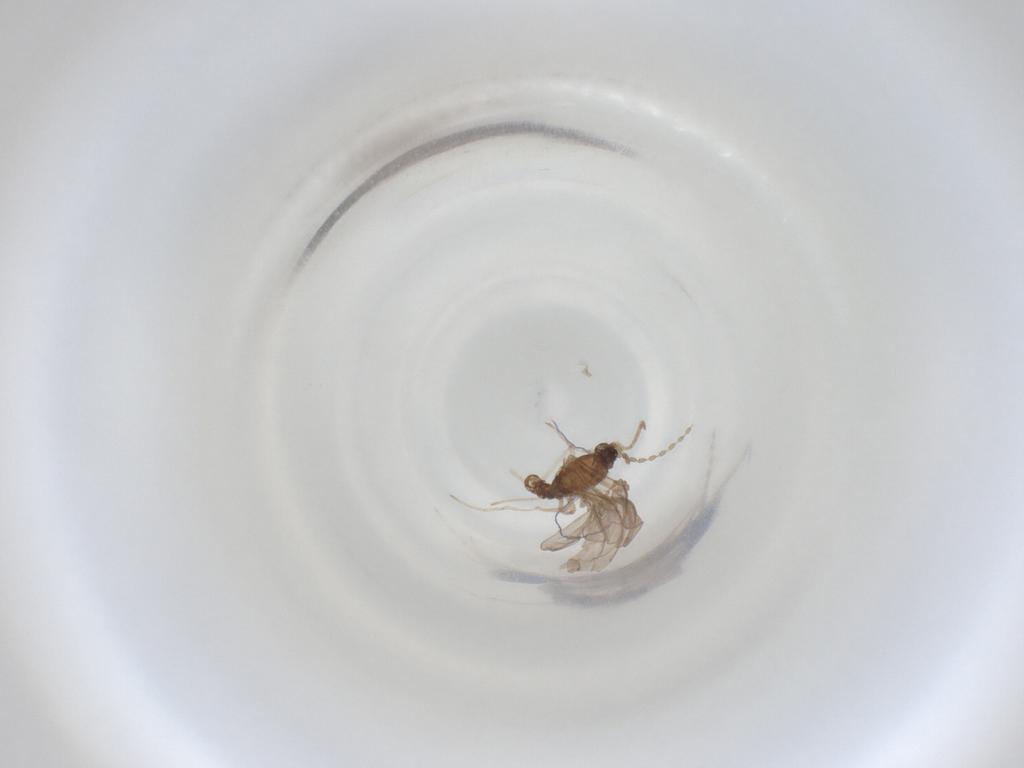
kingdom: Animalia
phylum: Arthropoda
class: Insecta
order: Diptera
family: Cecidomyiidae
